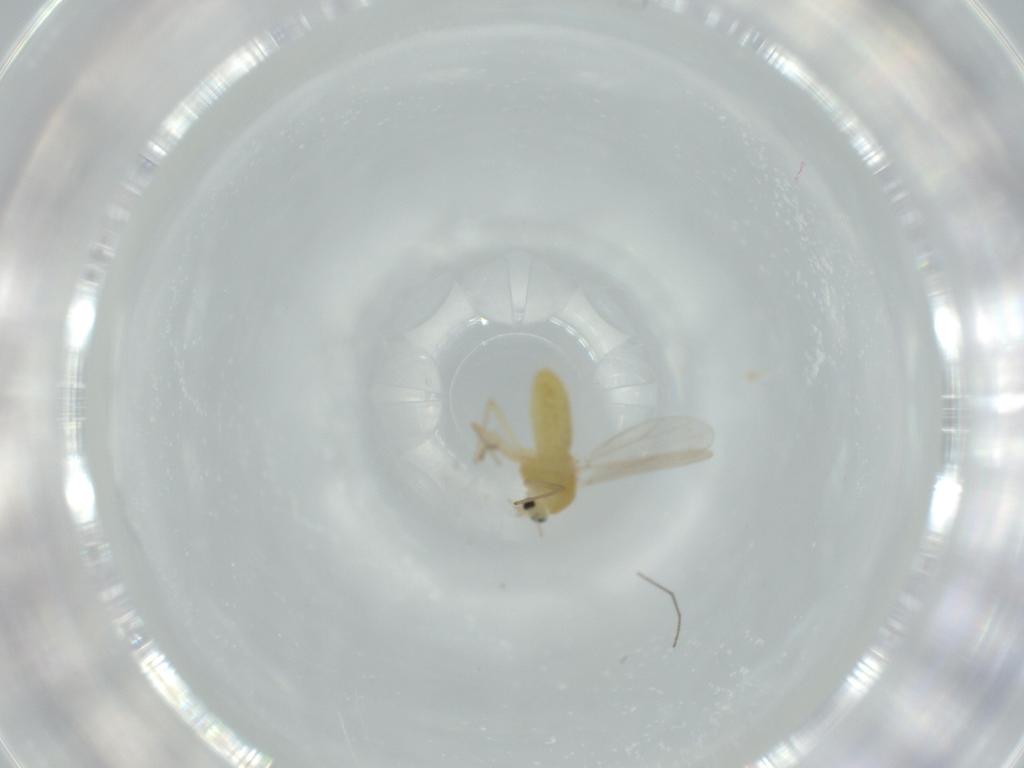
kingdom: Animalia
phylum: Arthropoda
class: Insecta
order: Diptera
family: Chironomidae
